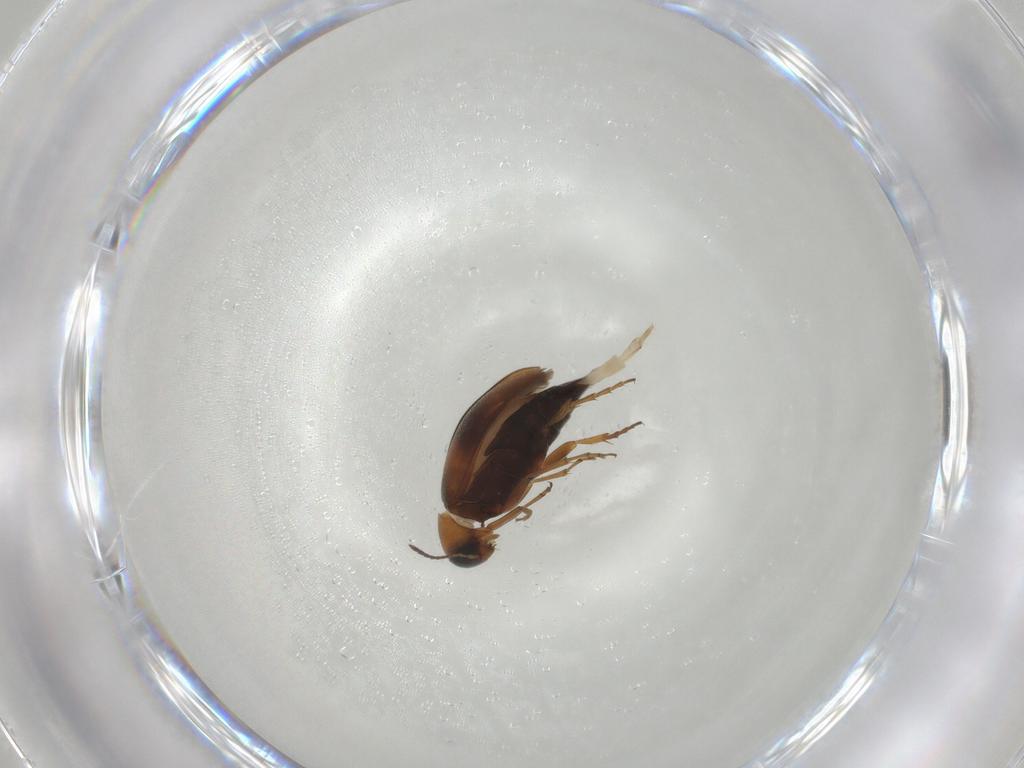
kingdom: Animalia
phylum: Arthropoda
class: Insecta
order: Coleoptera
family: Scraptiidae
